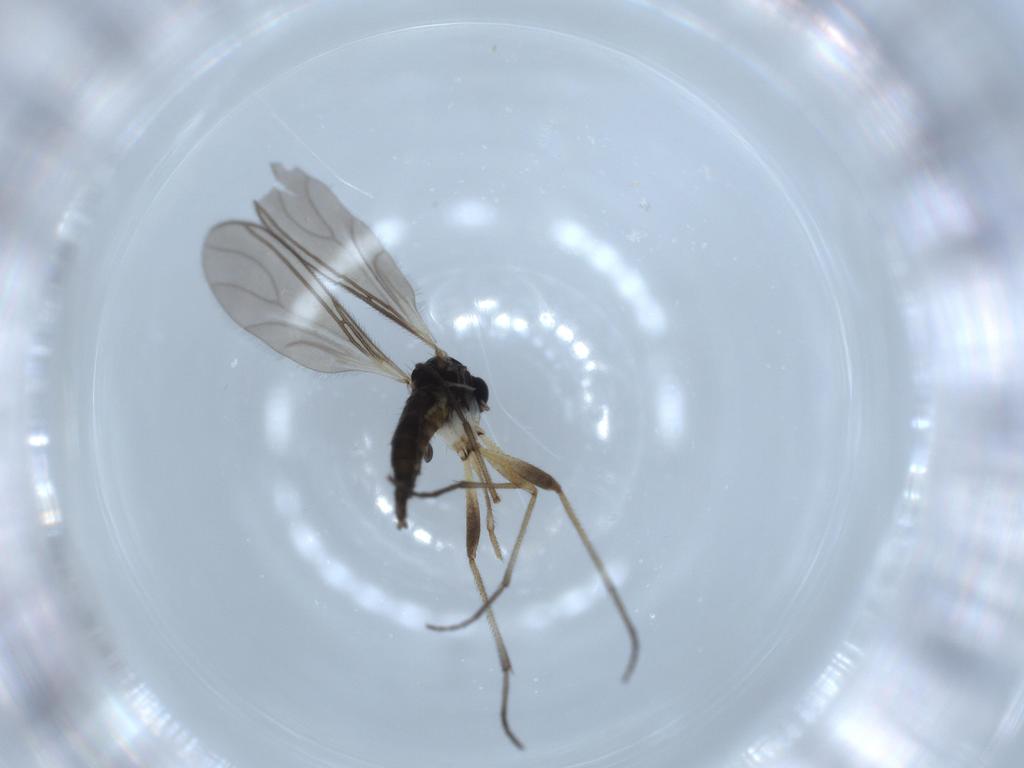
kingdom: Animalia
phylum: Arthropoda
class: Insecta
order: Diptera
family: Sciaridae
